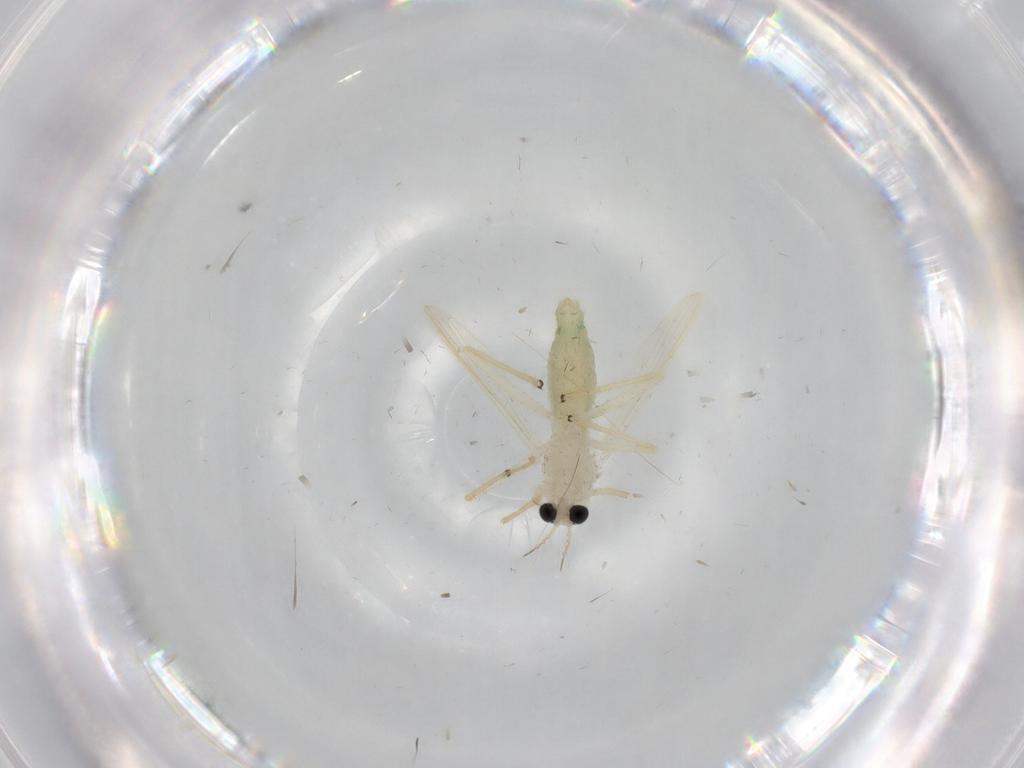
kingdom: Animalia
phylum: Arthropoda
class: Insecta
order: Diptera
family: Chironomidae
